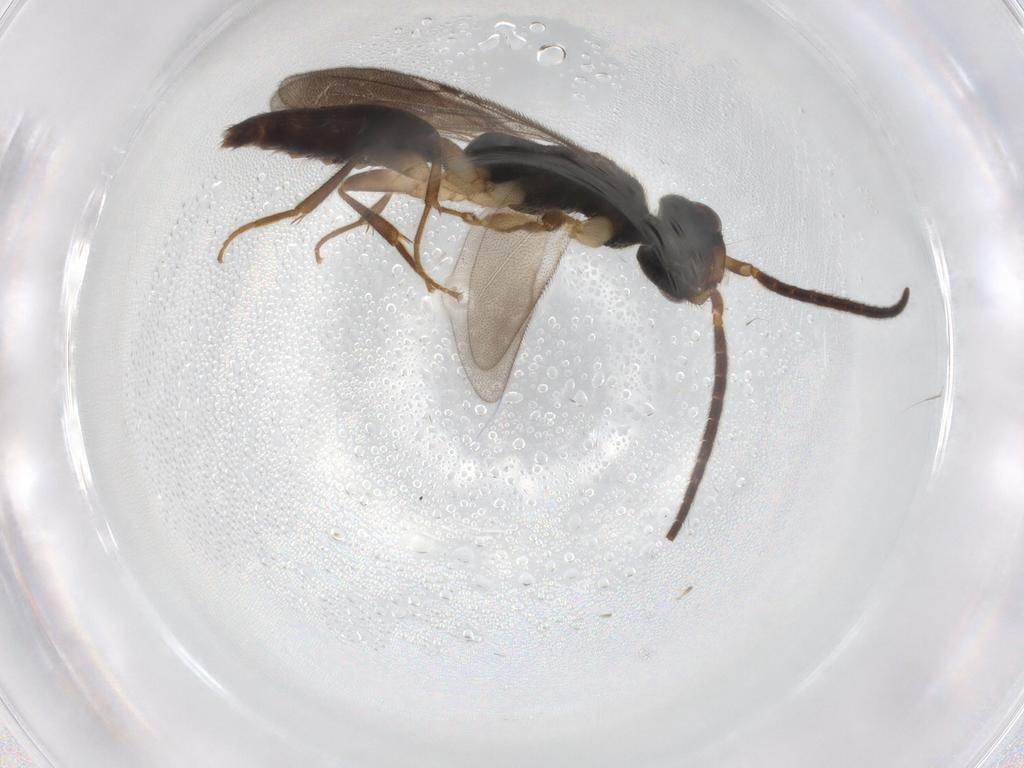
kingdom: Animalia
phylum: Arthropoda
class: Insecta
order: Hymenoptera
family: Bethylidae
